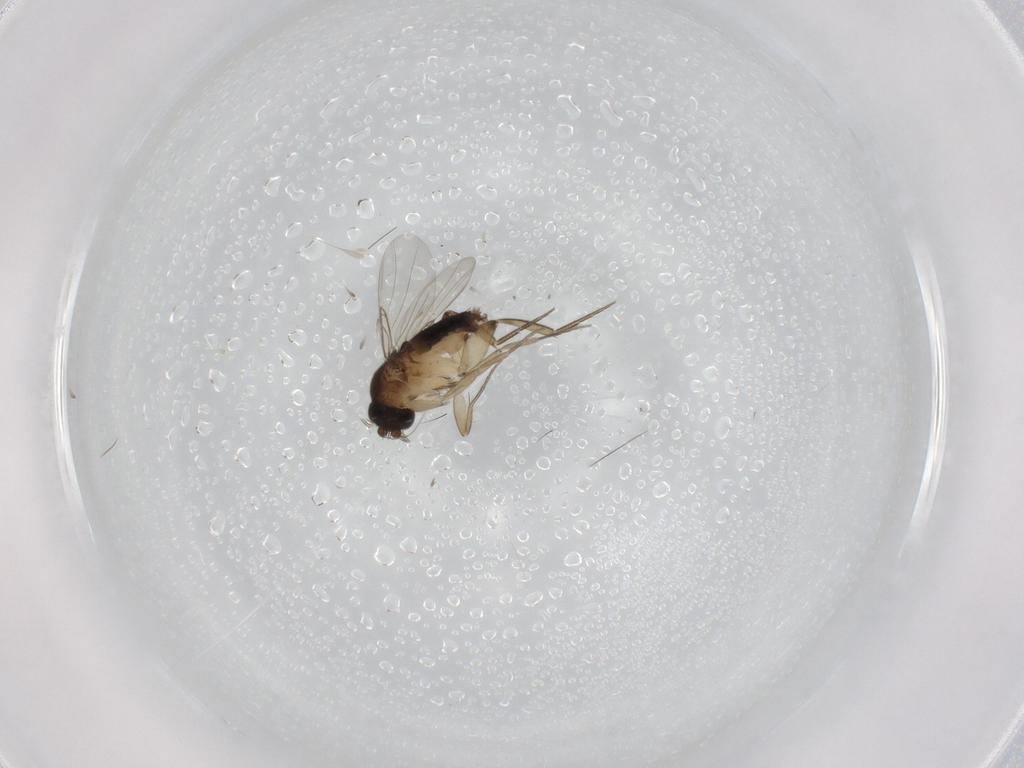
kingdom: Animalia
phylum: Arthropoda
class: Insecta
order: Diptera
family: Phoridae
